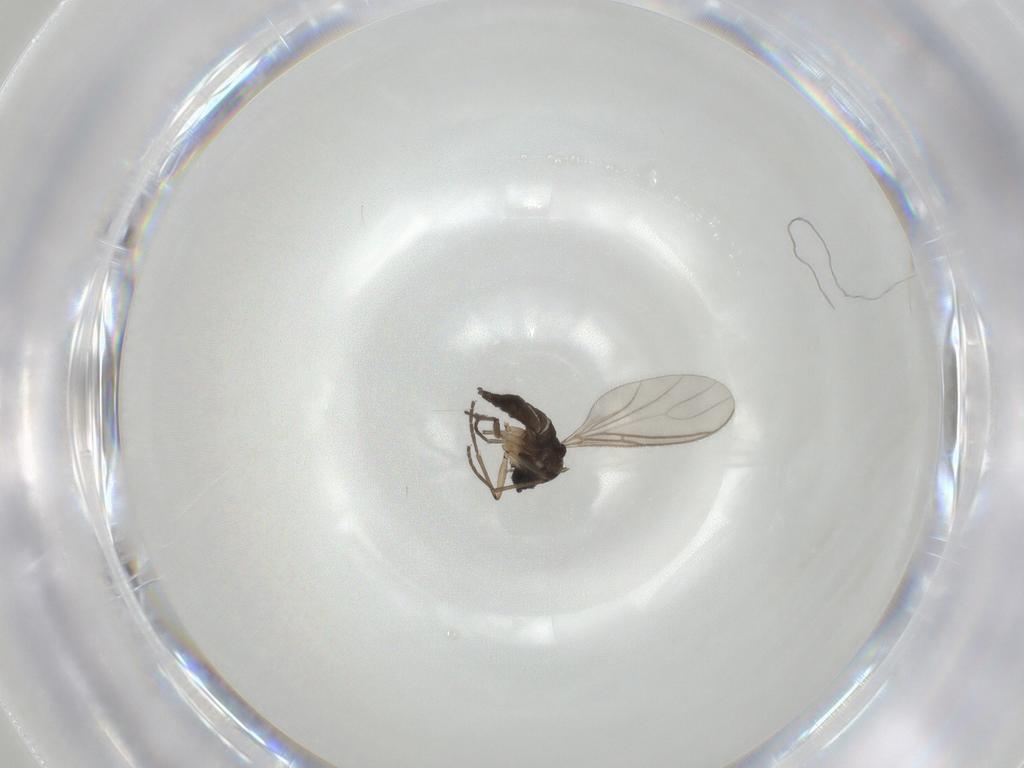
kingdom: Animalia
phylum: Arthropoda
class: Insecta
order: Diptera
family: Sciaridae
